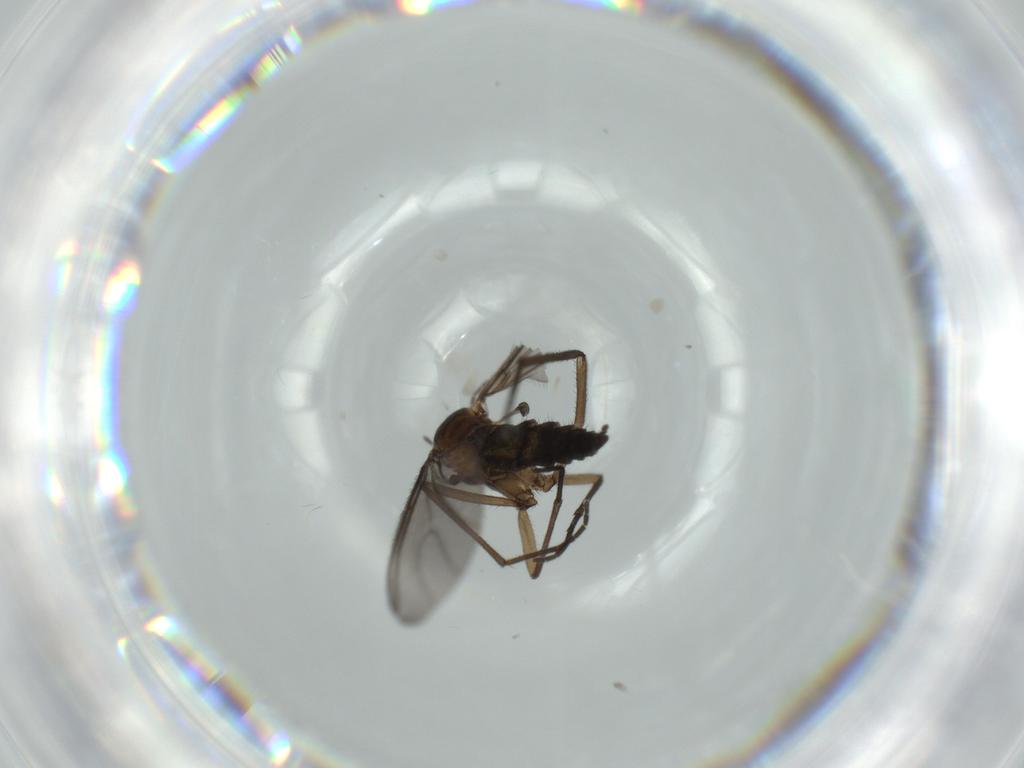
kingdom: Animalia
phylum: Arthropoda
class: Insecta
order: Diptera
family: Sciaridae
